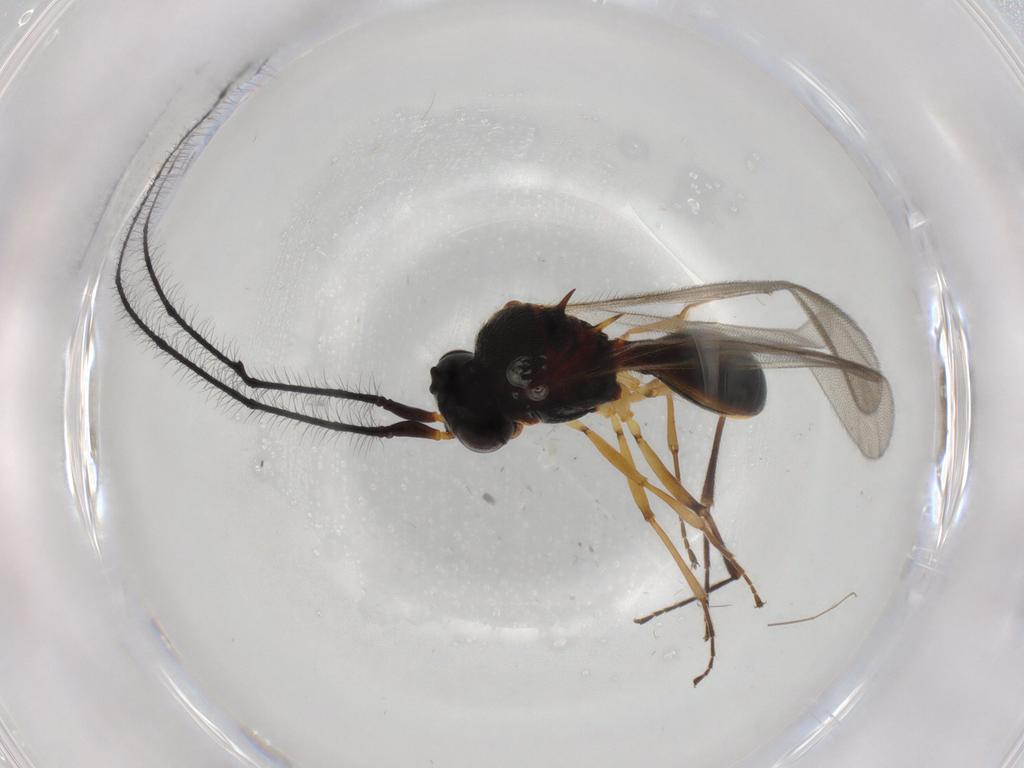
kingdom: Animalia
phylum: Arthropoda
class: Insecta
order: Hymenoptera
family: Scelionidae
